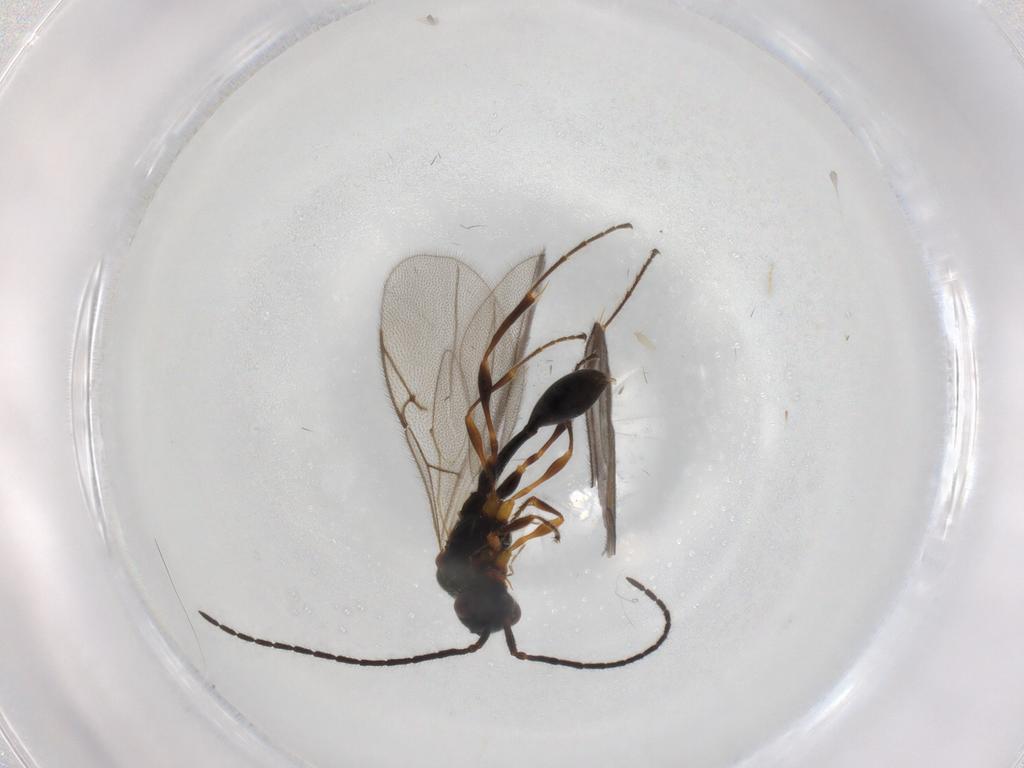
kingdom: Animalia
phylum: Arthropoda
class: Insecta
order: Hymenoptera
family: Diapriidae
